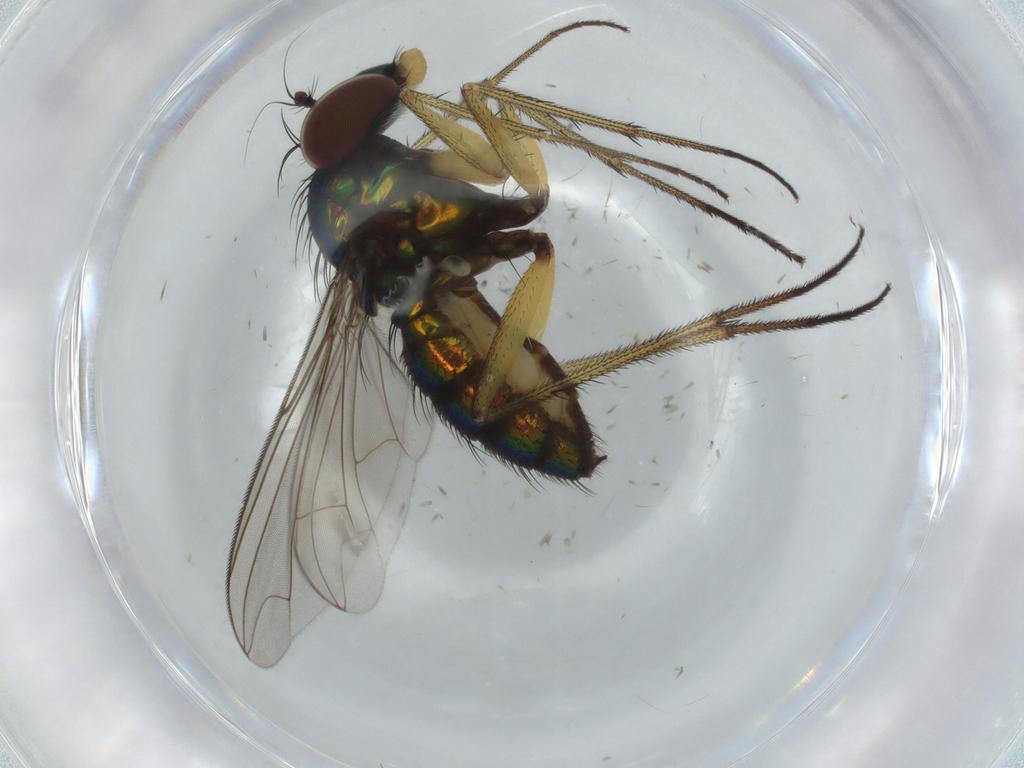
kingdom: Animalia
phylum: Arthropoda
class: Insecta
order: Diptera
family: Dolichopodidae
